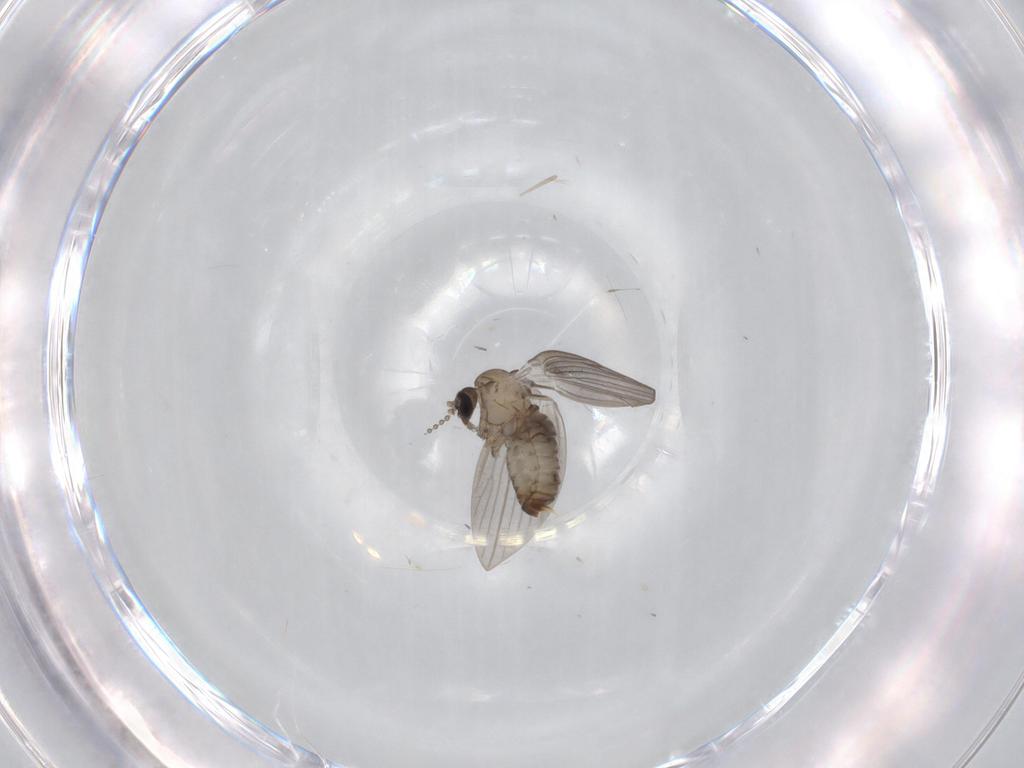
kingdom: Animalia
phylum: Arthropoda
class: Insecta
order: Diptera
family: Psychodidae
